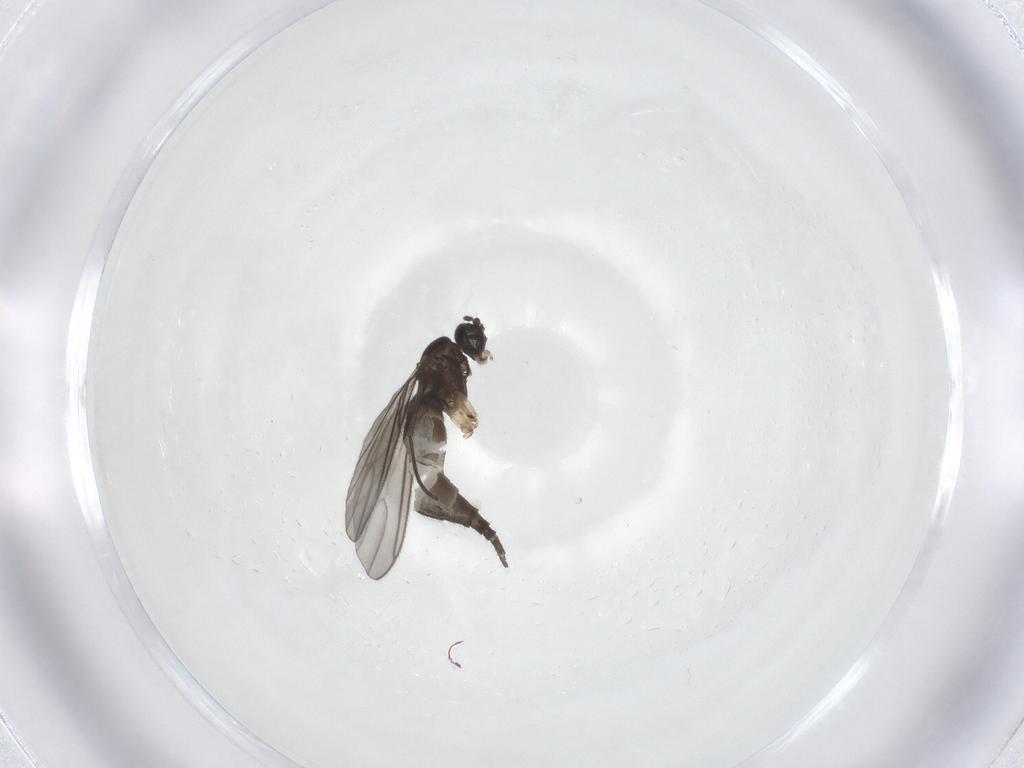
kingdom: Animalia
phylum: Arthropoda
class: Insecta
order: Diptera
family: Sciaridae
